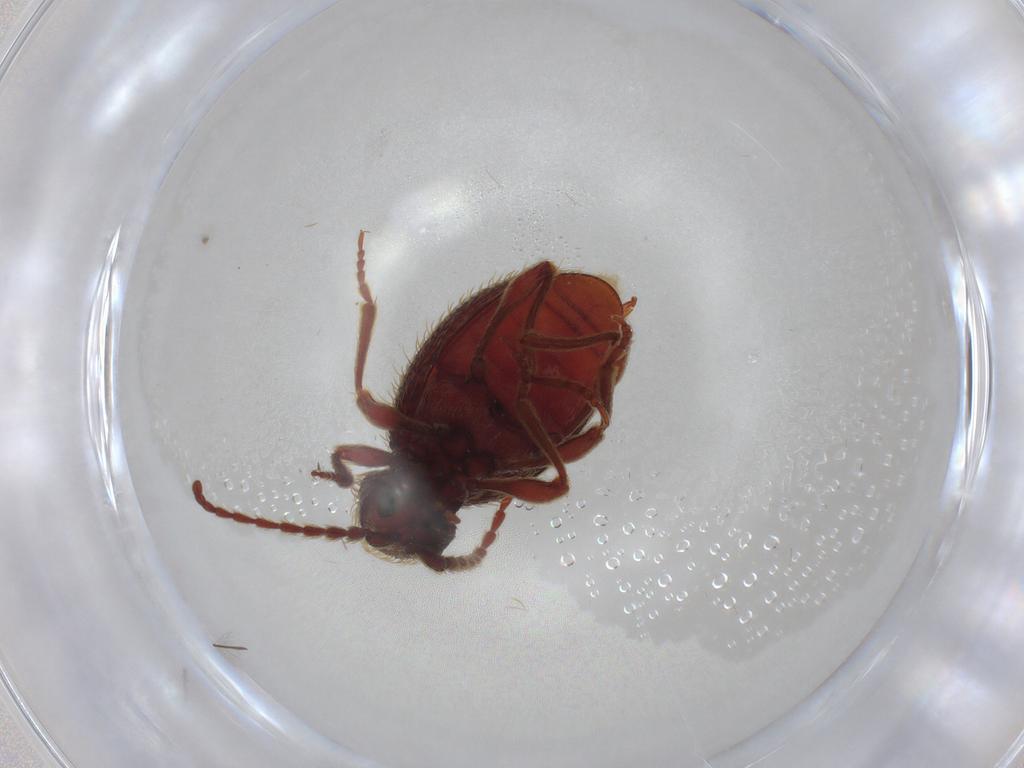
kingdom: Animalia
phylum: Arthropoda
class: Insecta
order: Coleoptera
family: Ptinidae
